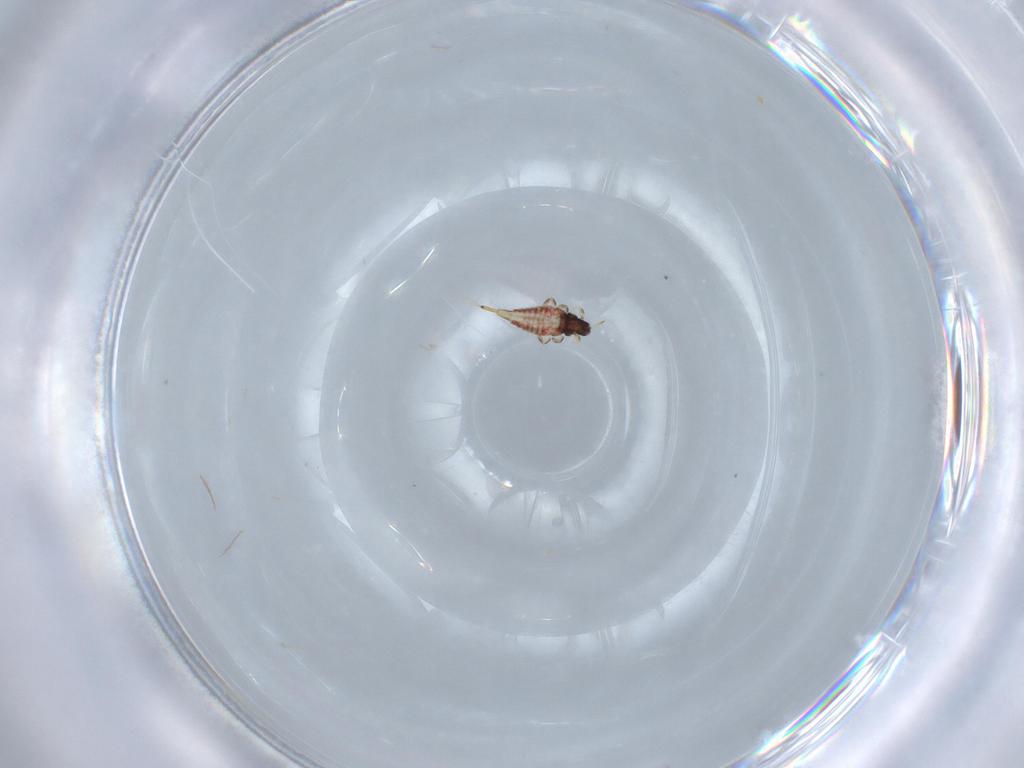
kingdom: Animalia
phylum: Arthropoda
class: Insecta
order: Thysanoptera
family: Phlaeothripidae
